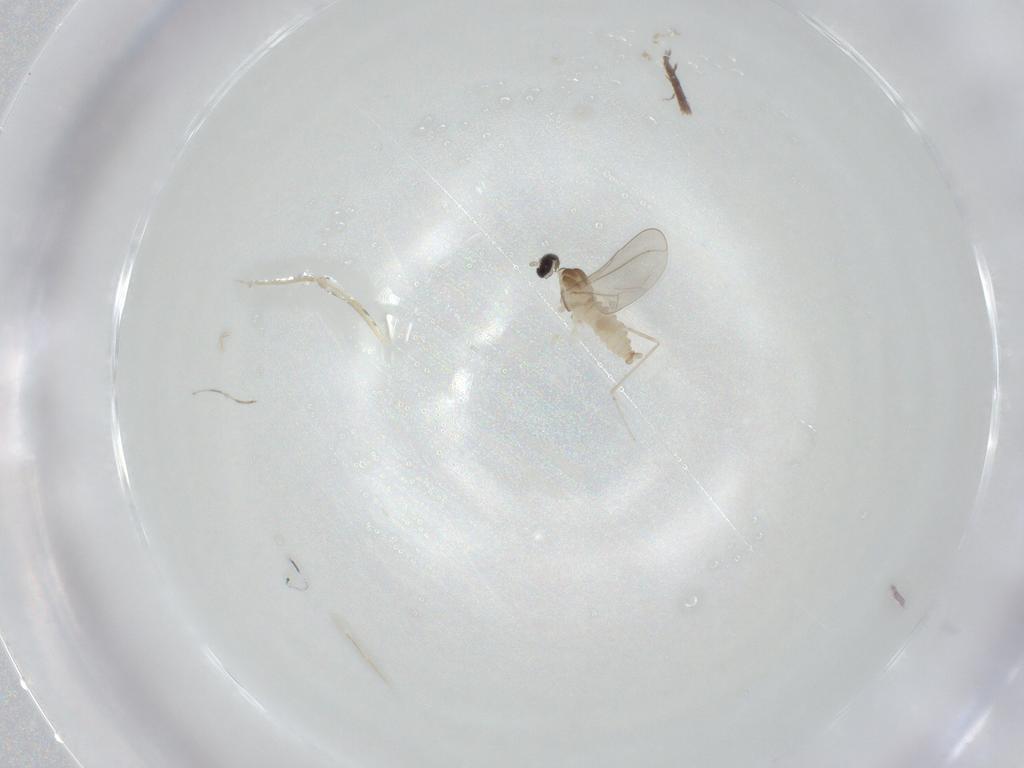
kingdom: Animalia
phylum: Arthropoda
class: Insecta
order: Diptera
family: Cecidomyiidae
